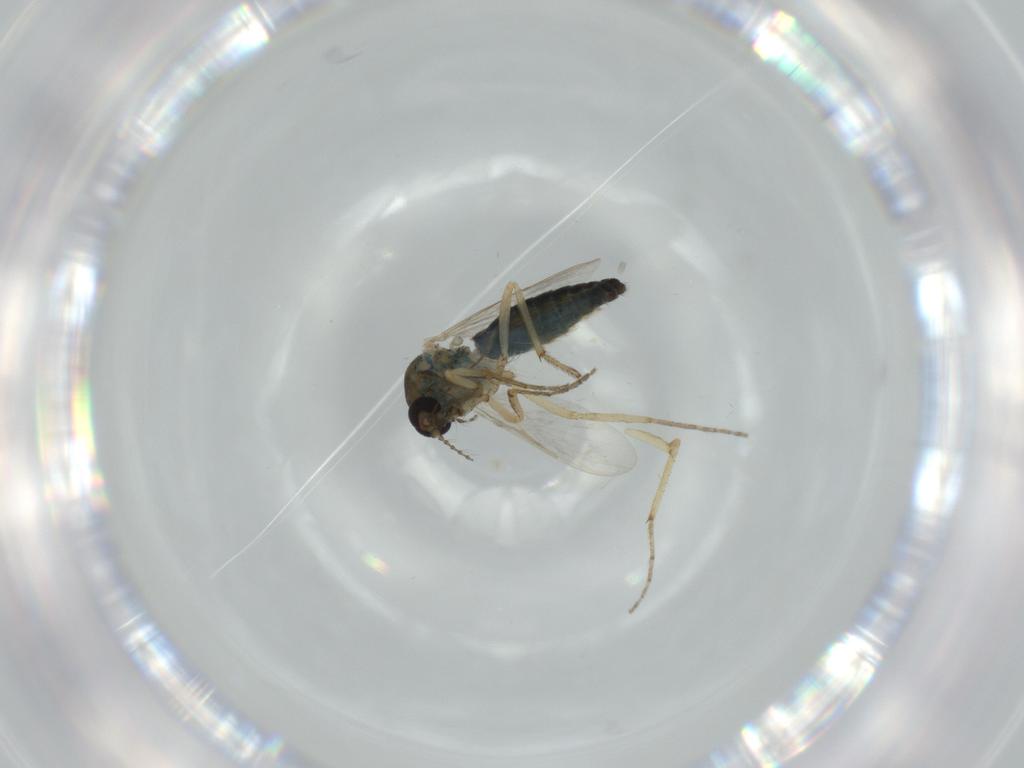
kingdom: Animalia
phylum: Arthropoda
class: Insecta
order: Diptera
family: Ceratopogonidae
